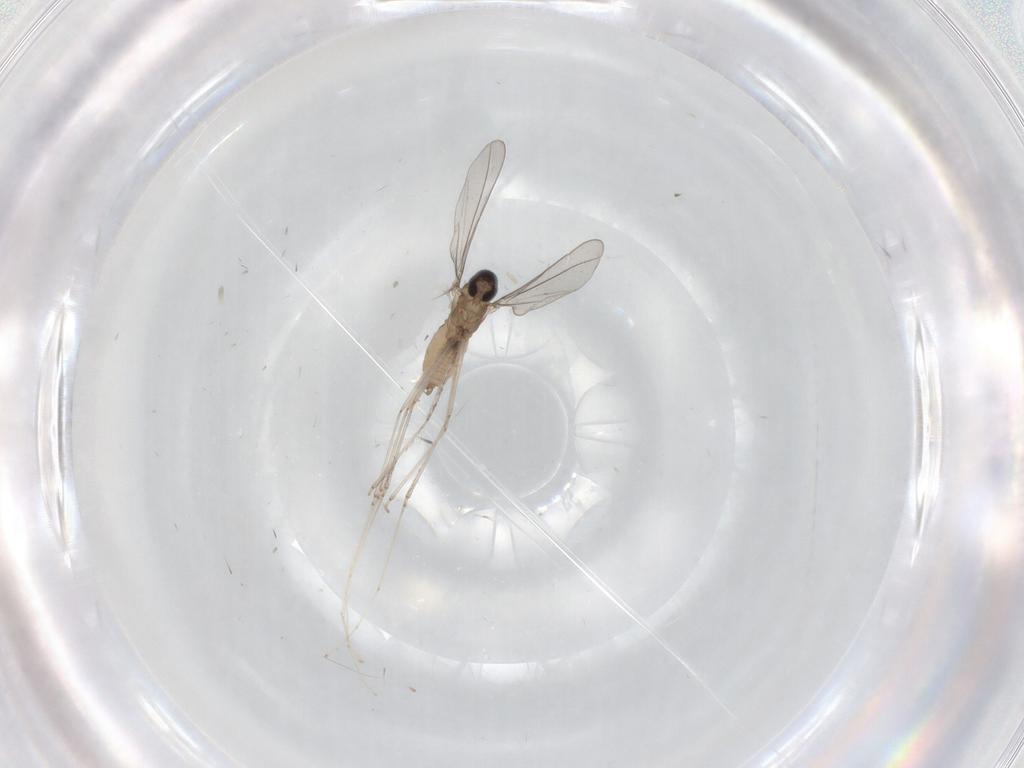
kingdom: Animalia
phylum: Arthropoda
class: Insecta
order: Diptera
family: Cecidomyiidae
